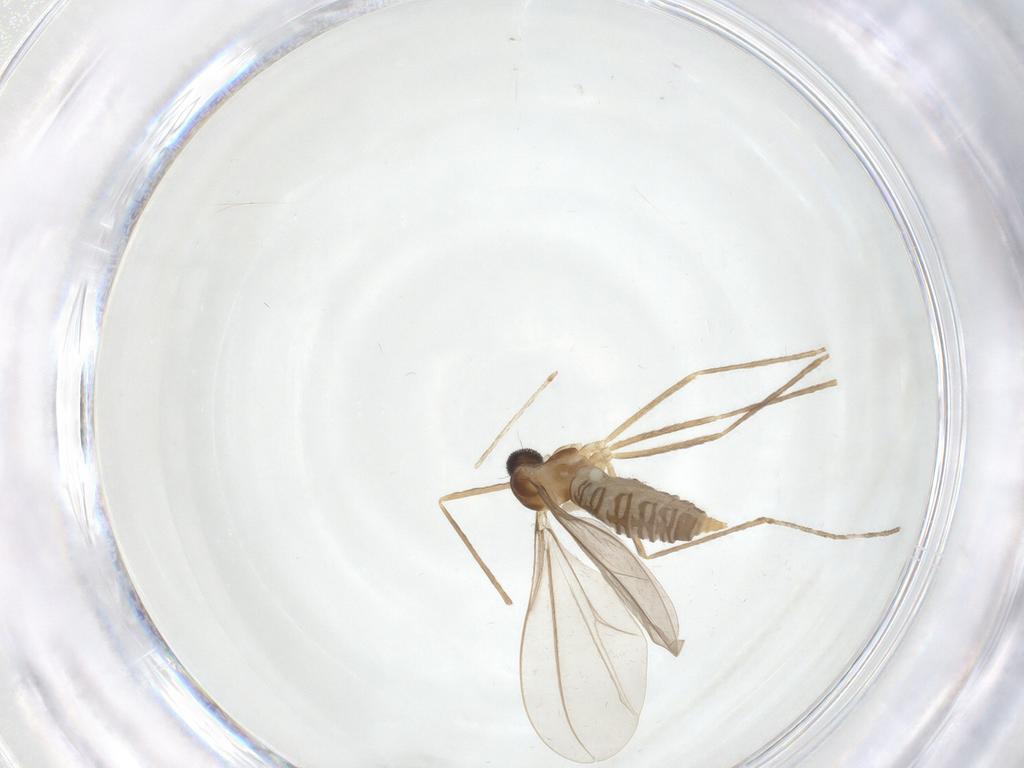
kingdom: Animalia
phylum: Arthropoda
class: Insecta
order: Diptera
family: Cecidomyiidae
